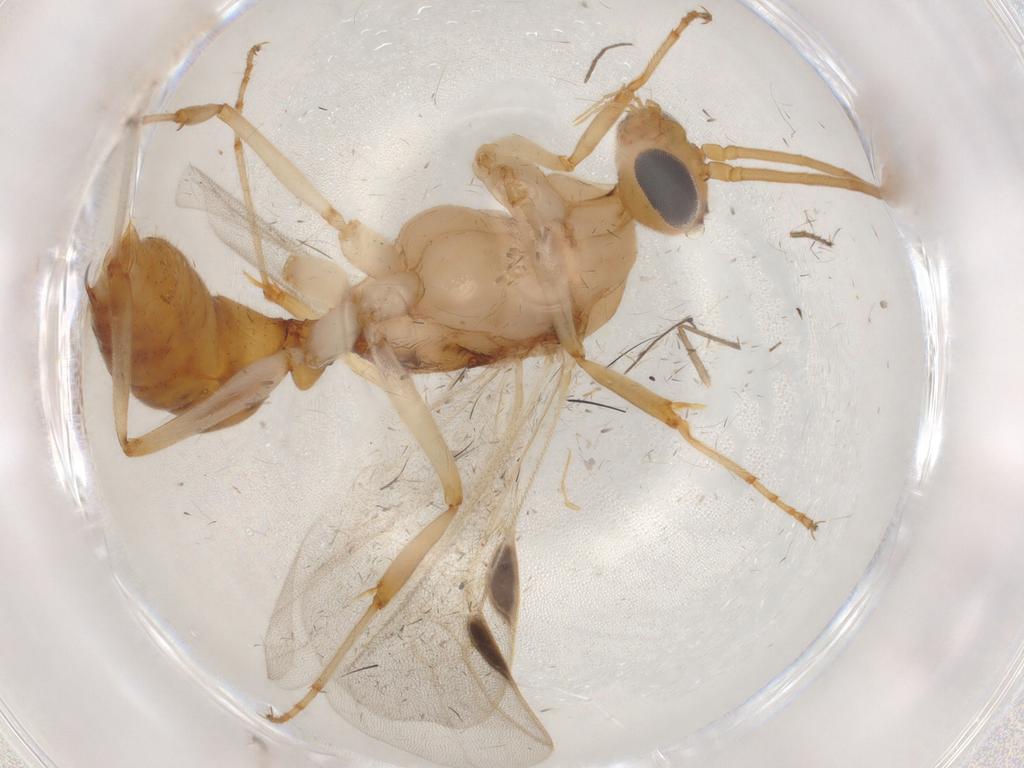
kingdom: Animalia
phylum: Arthropoda
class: Insecta
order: Hymenoptera
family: Formicidae
